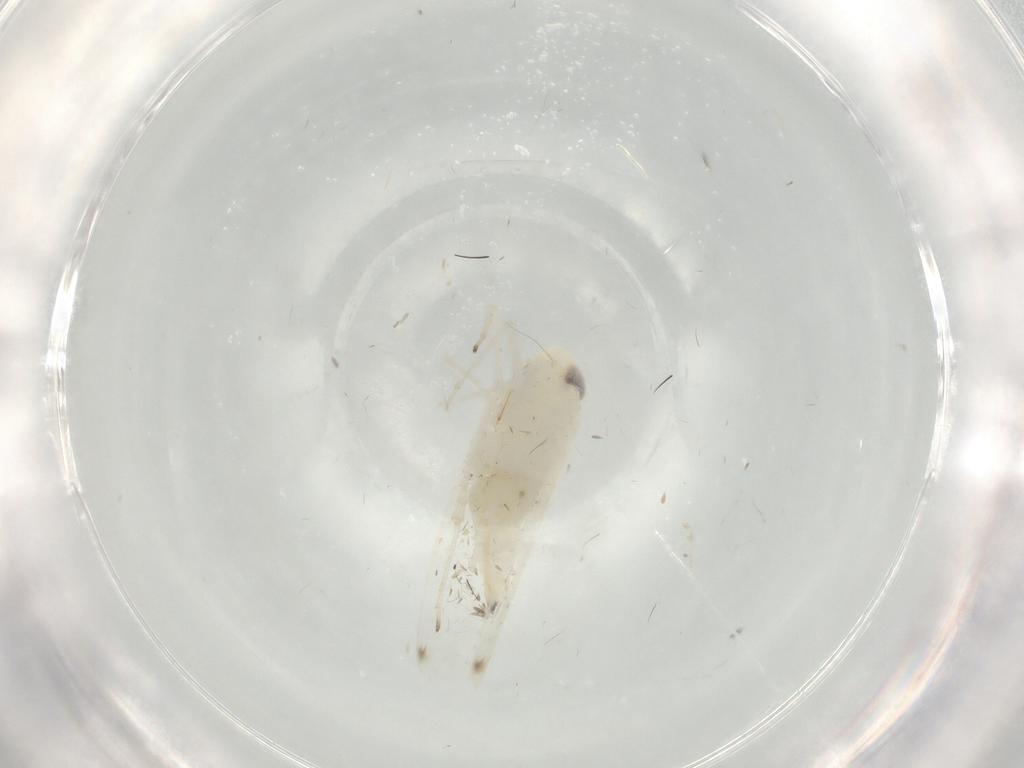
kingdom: Animalia
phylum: Arthropoda
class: Insecta
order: Hemiptera
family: Cicadellidae
